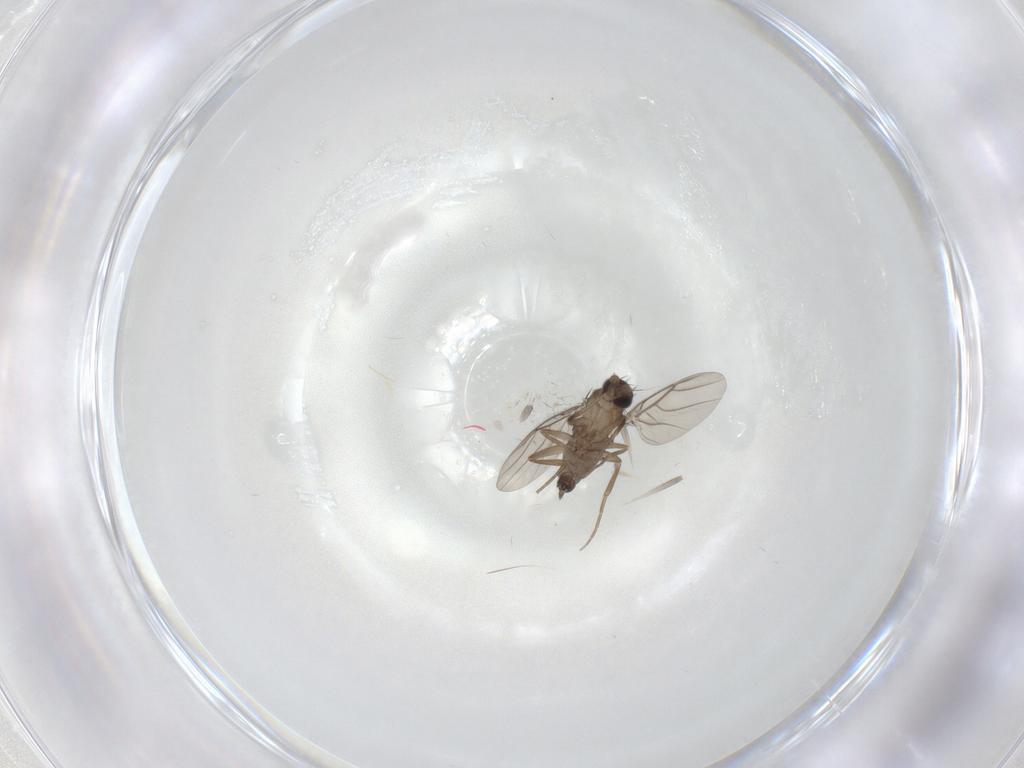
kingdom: Animalia
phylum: Arthropoda
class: Insecta
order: Diptera
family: Phoridae
